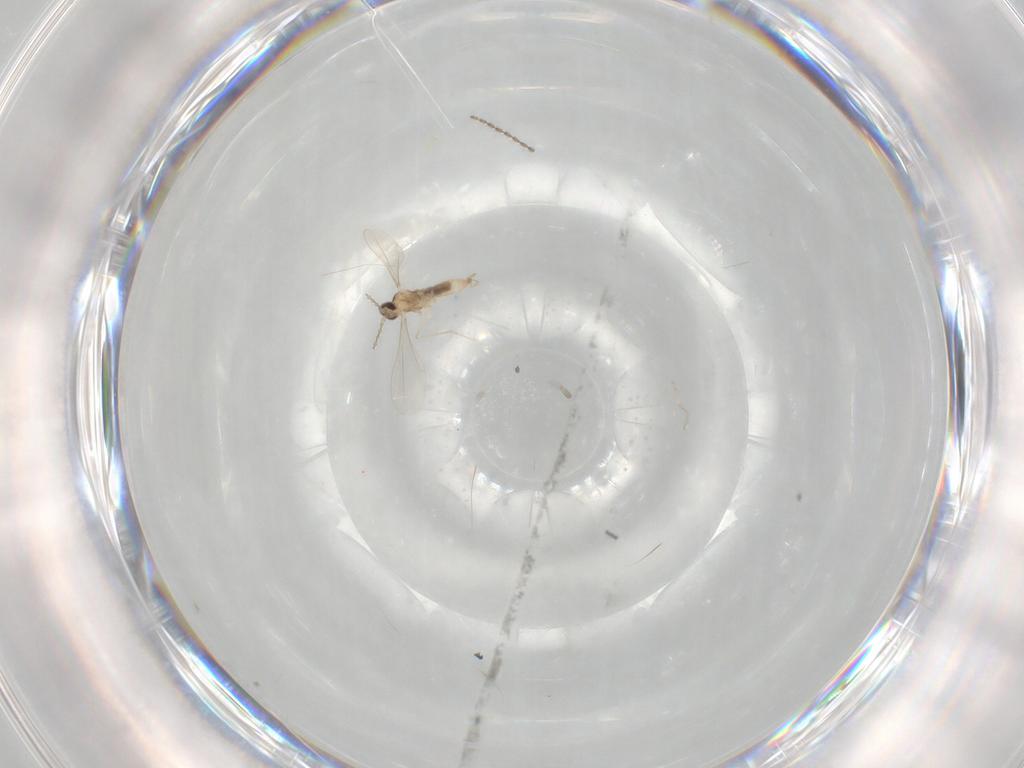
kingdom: Animalia
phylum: Arthropoda
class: Insecta
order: Diptera
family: Cecidomyiidae
